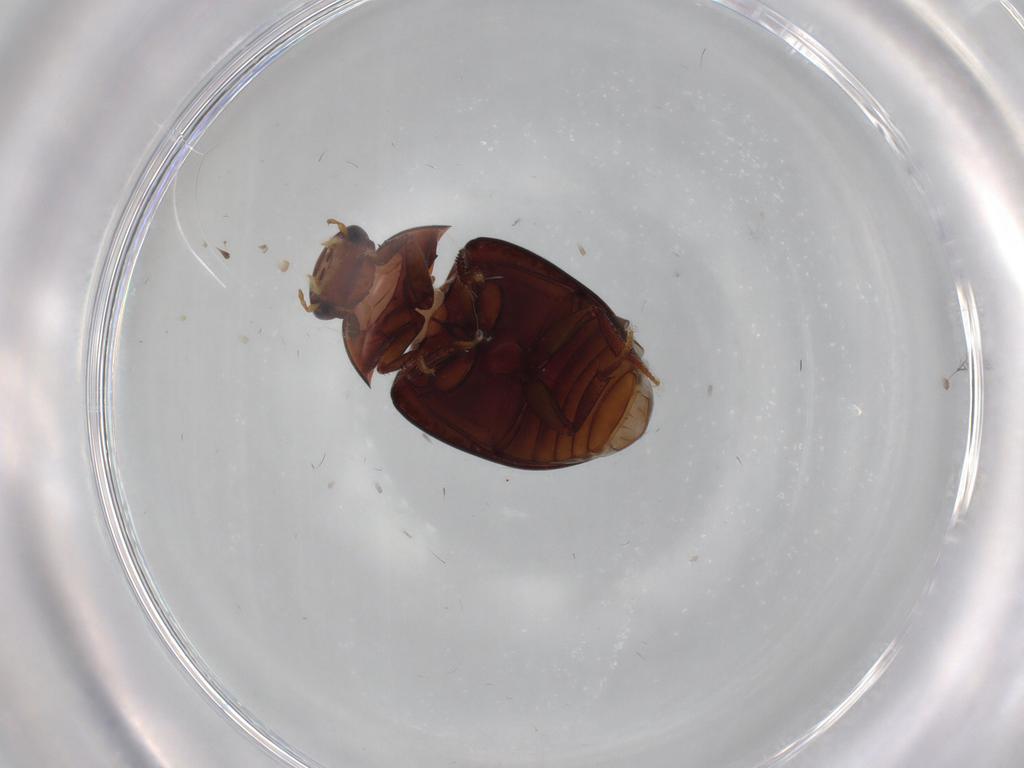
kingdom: Animalia
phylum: Arthropoda
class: Insecta
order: Coleoptera
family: Hydrophilidae
